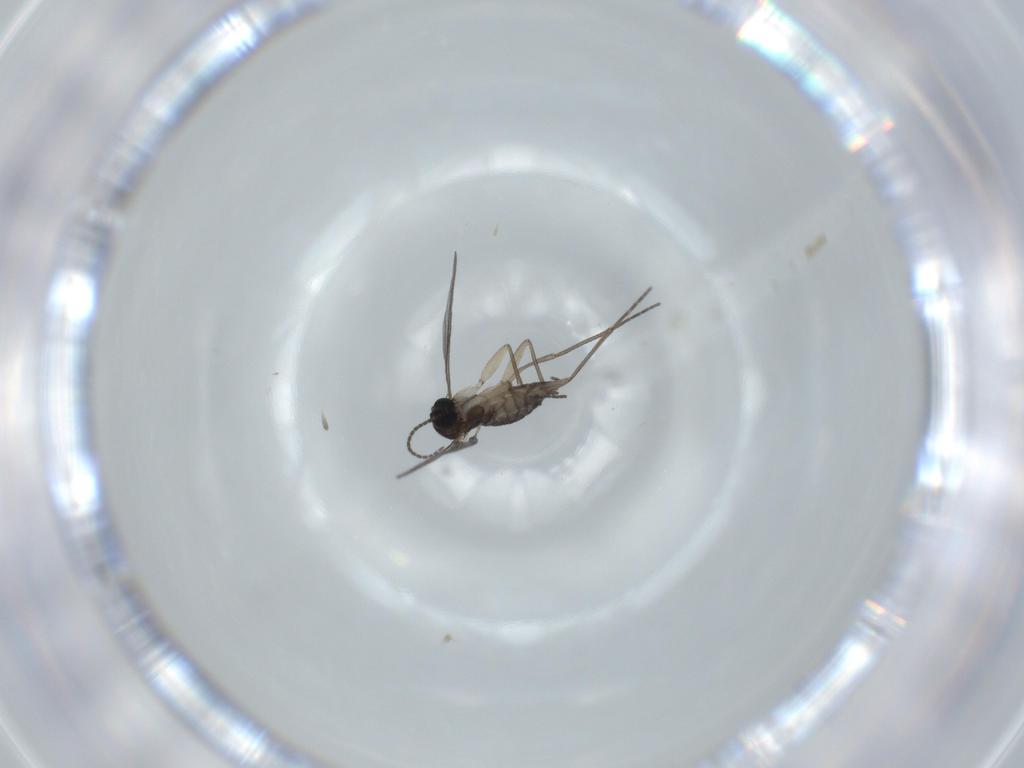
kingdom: Animalia
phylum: Arthropoda
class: Insecta
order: Diptera
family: Sciaridae
